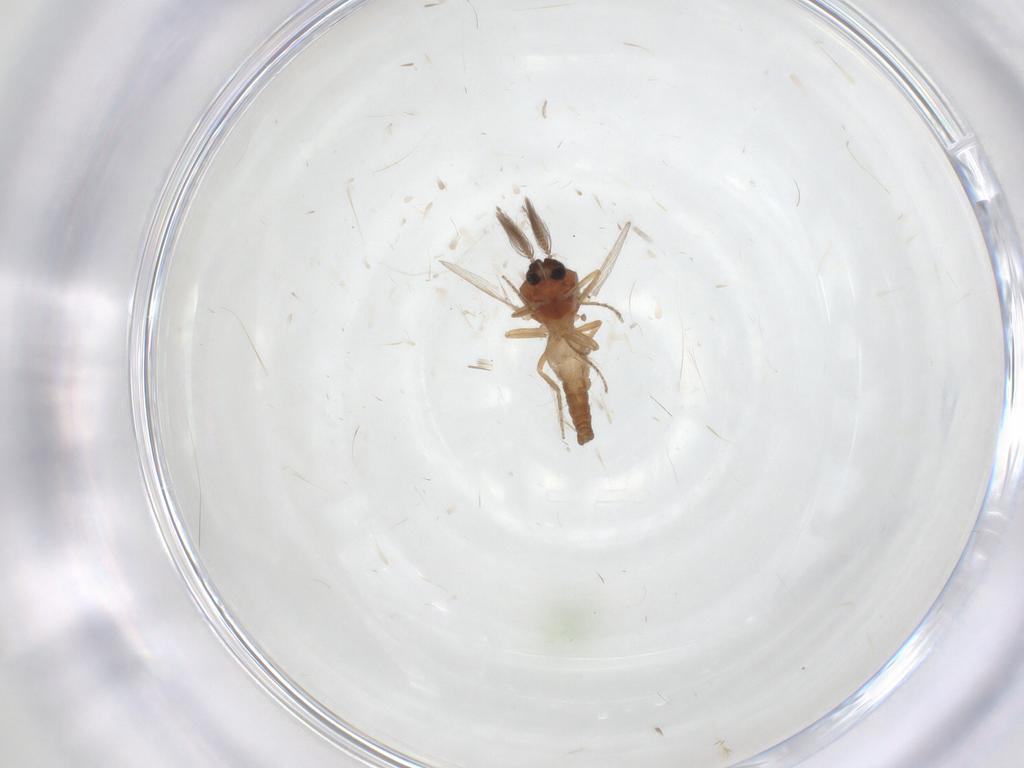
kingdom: Animalia
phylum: Arthropoda
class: Insecta
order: Diptera
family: Ceratopogonidae
